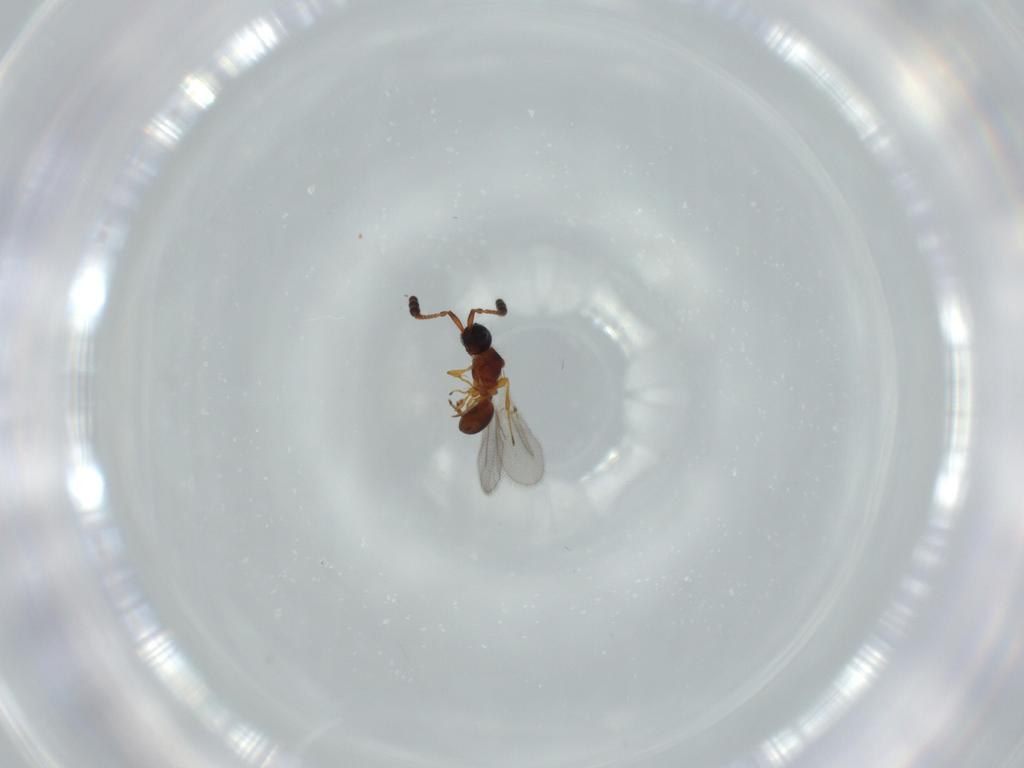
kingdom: Animalia
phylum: Arthropoda
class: Insecta
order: Hymenoptera
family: Diapriidae
